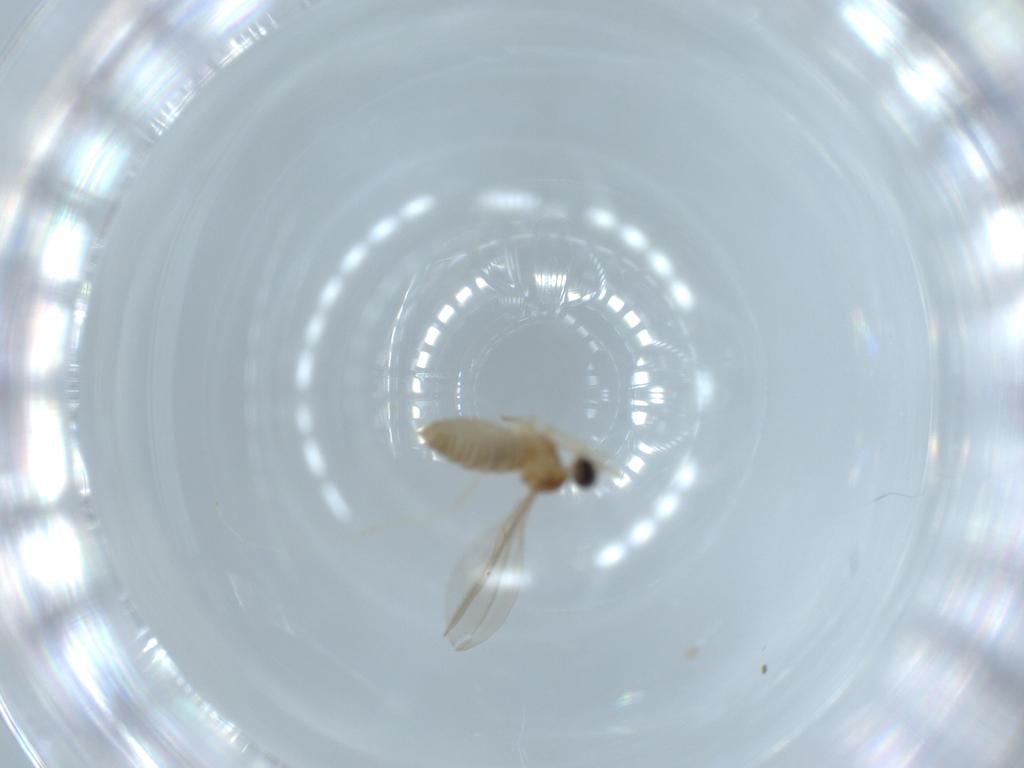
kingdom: Animalia
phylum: Arthropoda
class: Insecta
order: Diptera
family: Cecidomyiidae
